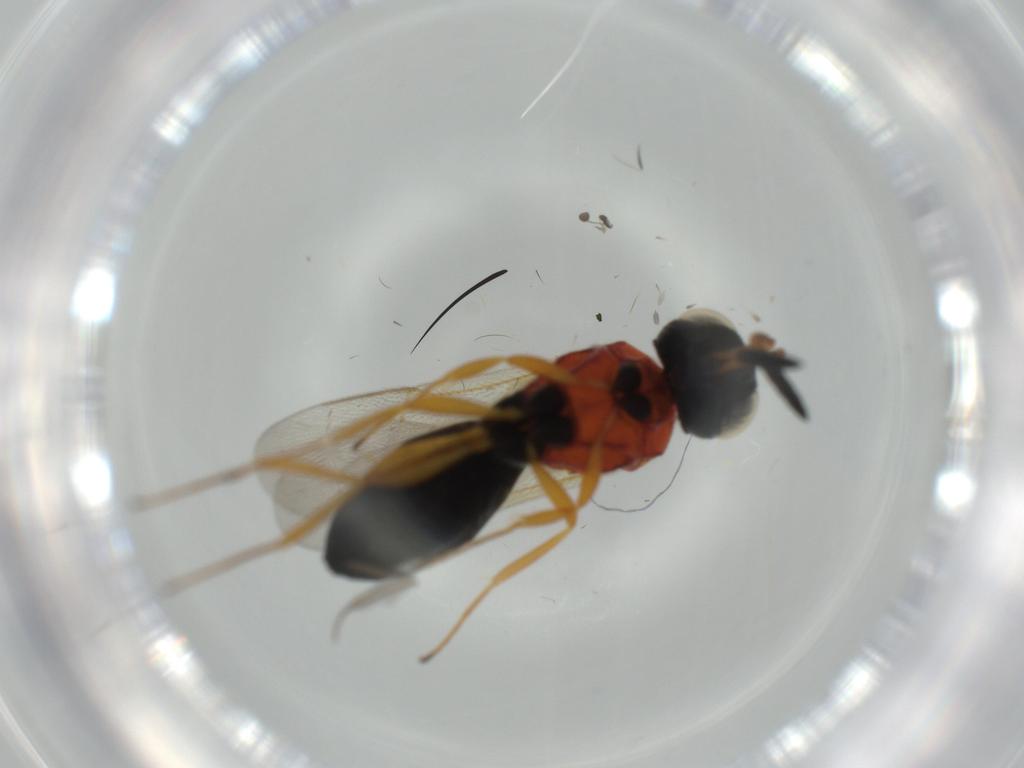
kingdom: Animalia
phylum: Arthropoda
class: Insecta
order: Hymenoptera
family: Scelionidae
